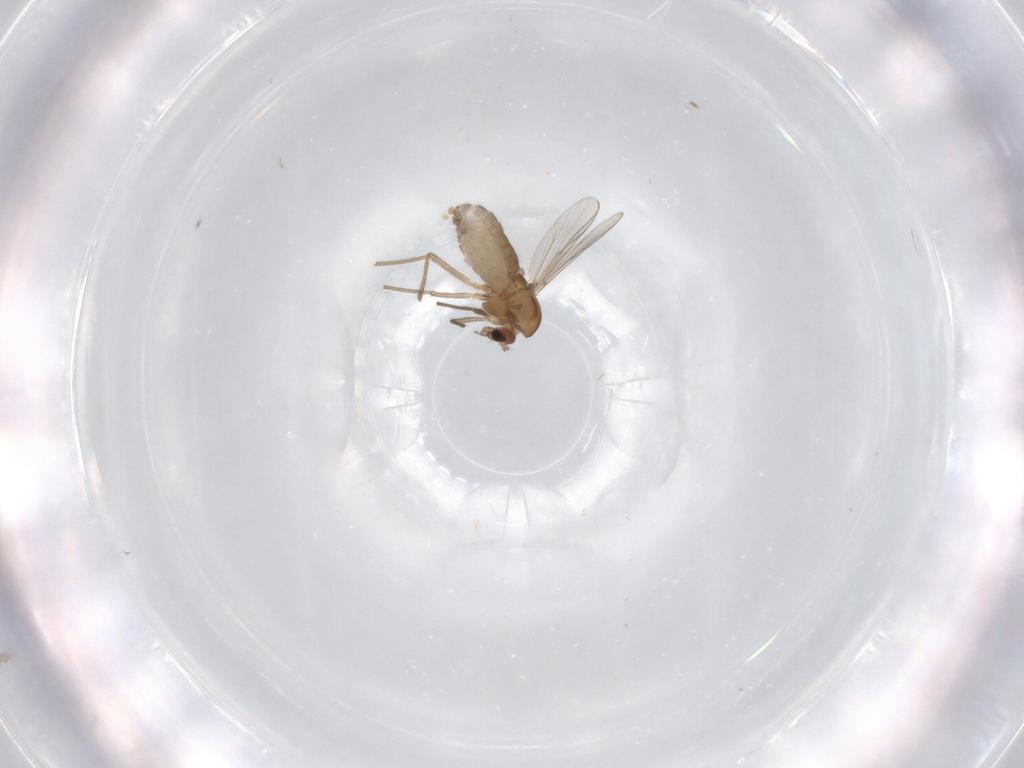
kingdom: Animalia
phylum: Arthropoda
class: Insecta
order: Diptera
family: Chironomidae
